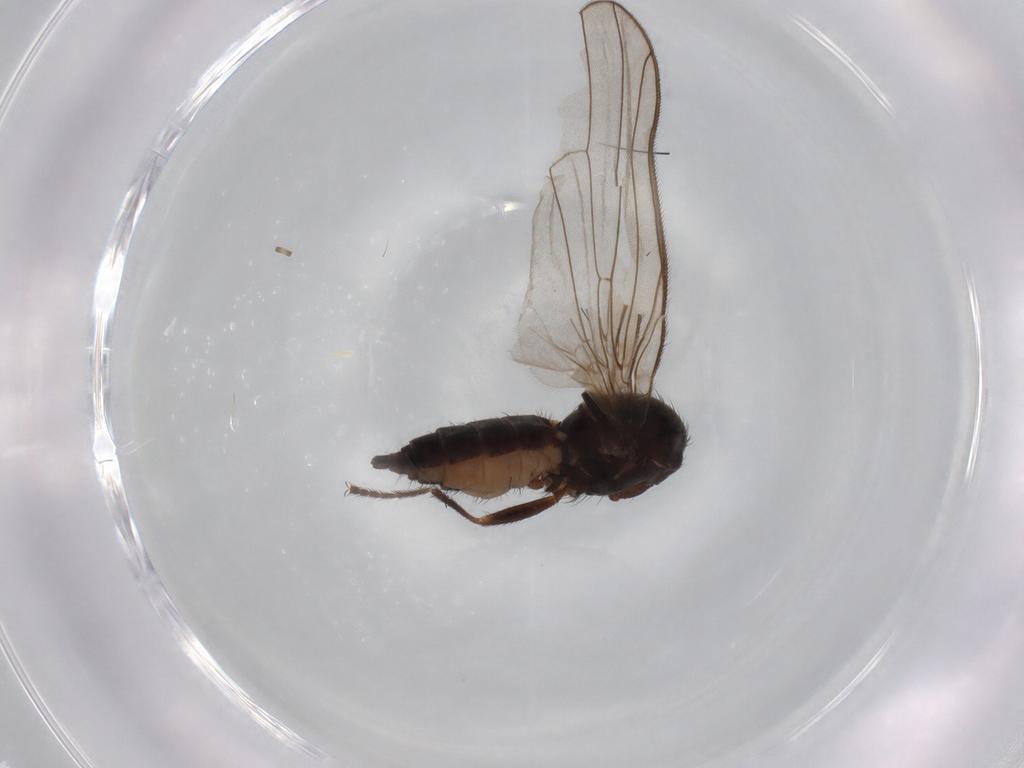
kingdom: Animalia
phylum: Arthropoda
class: Insecta
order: Diptera
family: Heleomyzidae
